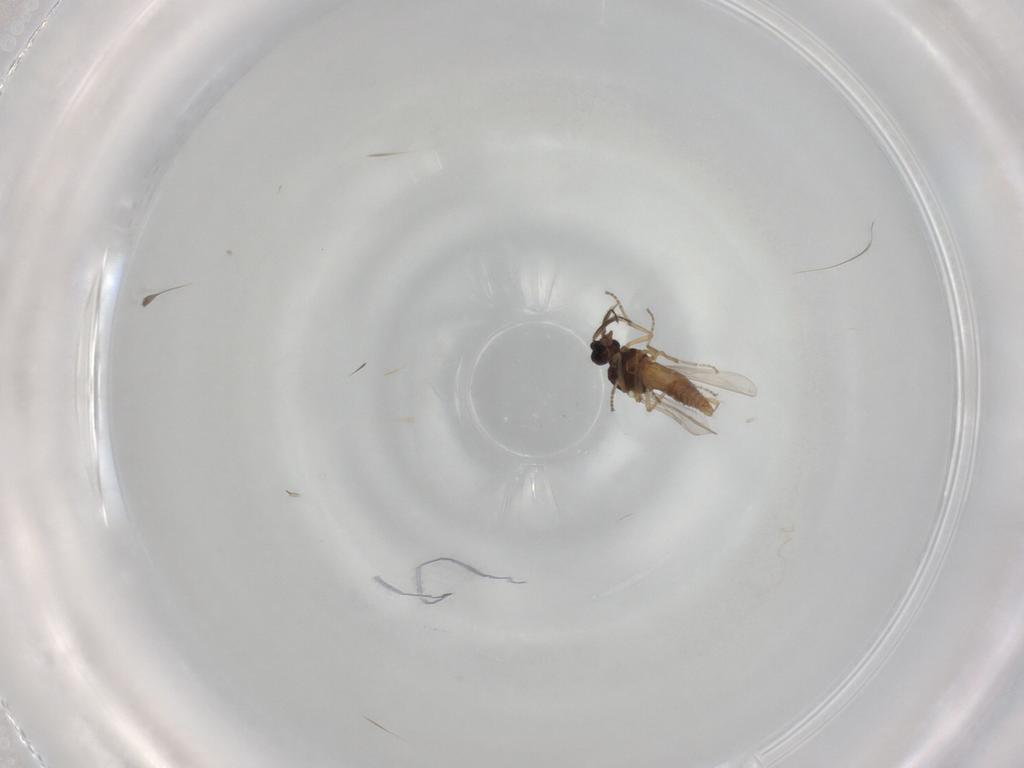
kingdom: Animalia
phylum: Arthropoda
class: Insecta
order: Diptera
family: Ceratopogonidae
